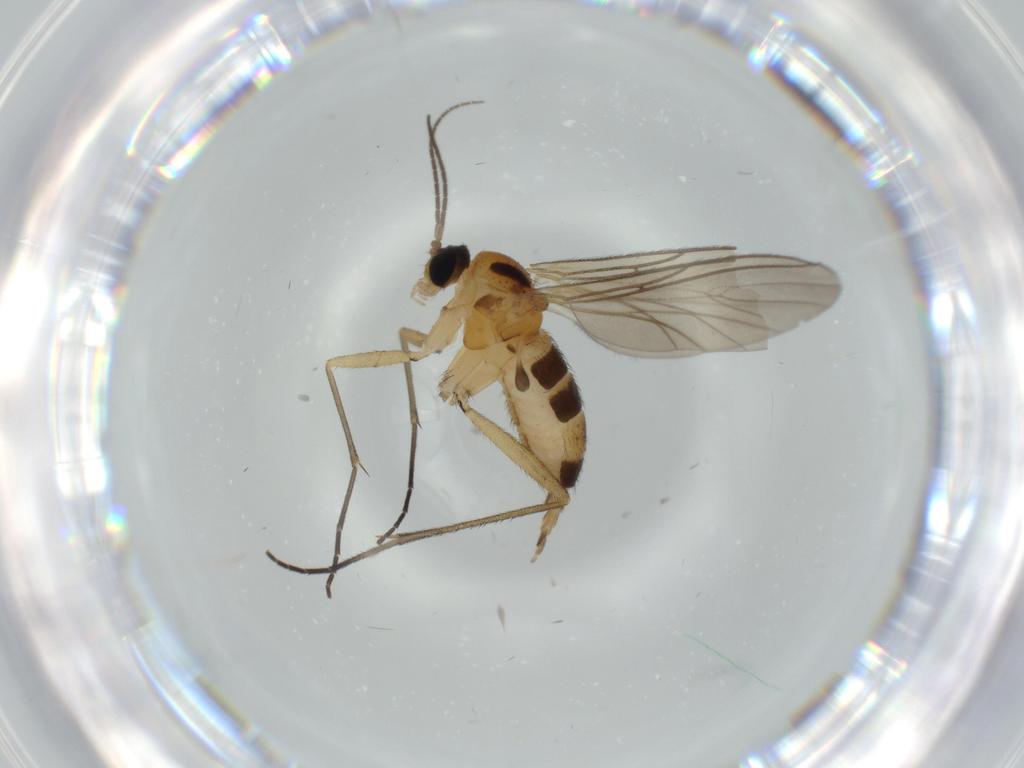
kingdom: Animalia
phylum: Arthropoda
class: Insecta
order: Diptera
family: Sciaridae
